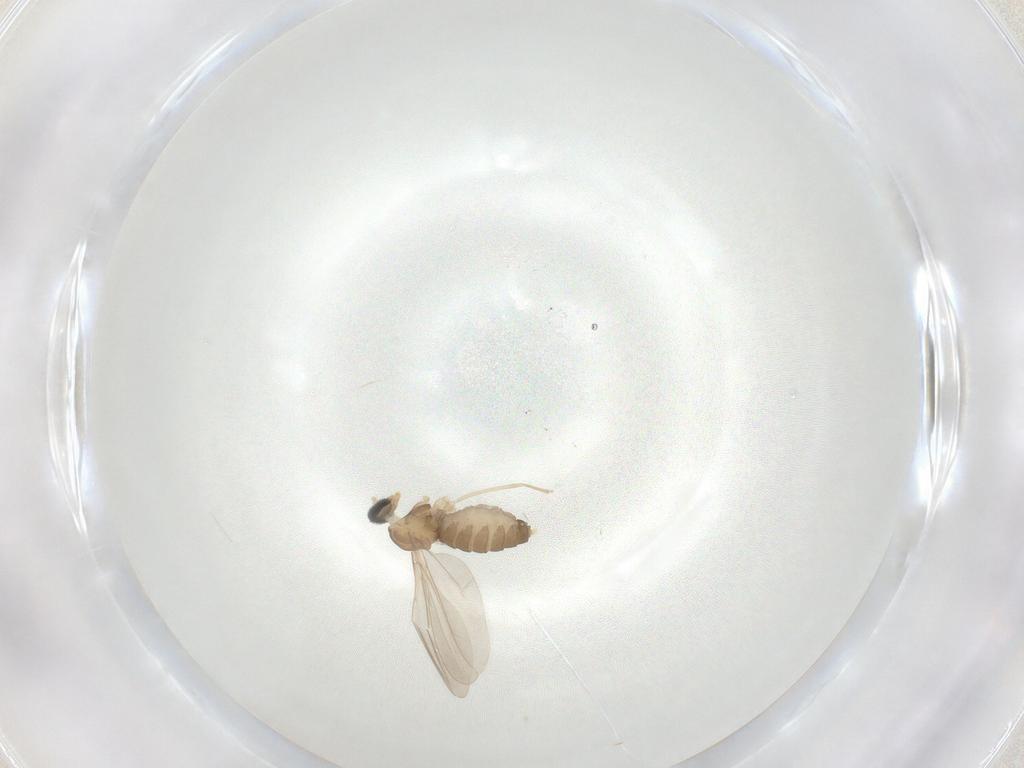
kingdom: Animalia
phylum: Arthropoda
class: Insecta
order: Diptera
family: Cecidomyiidae
